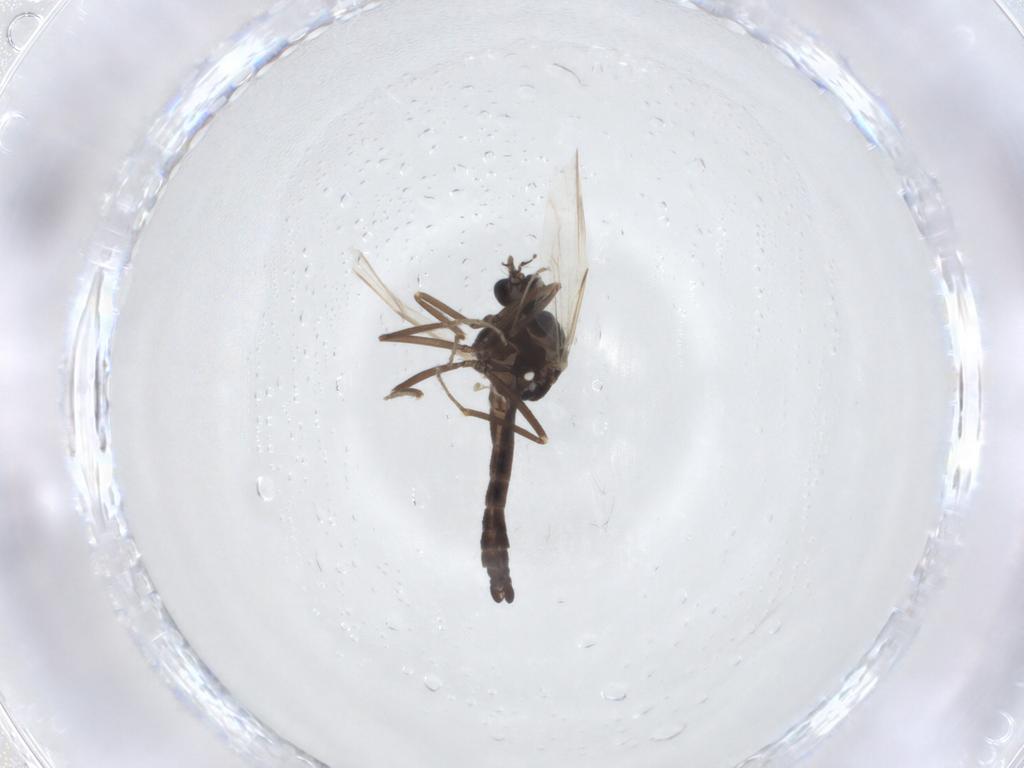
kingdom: Animalia
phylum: Arthropoda
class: Insecta
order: Diptera
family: Ceratopogonidae
